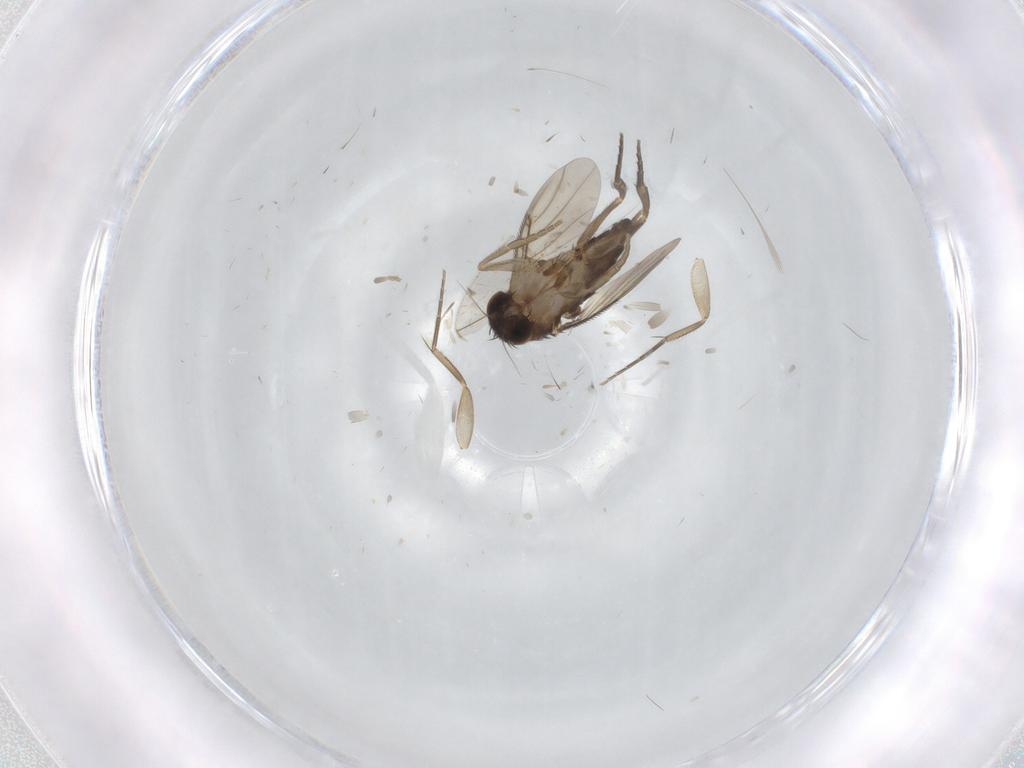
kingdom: Animalia
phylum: Arthropoda
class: Insecta
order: Diptera
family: Phoridae
